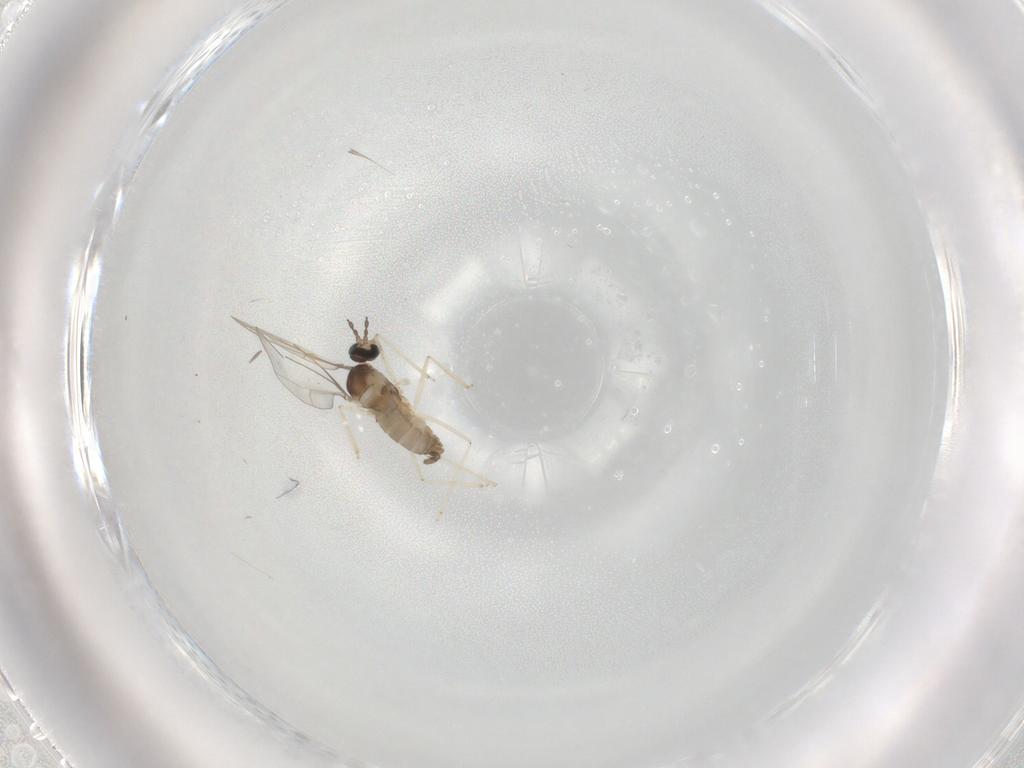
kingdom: Animalia
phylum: Arthropoda
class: Insecta
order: Diptera
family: Cecidomyiidae
